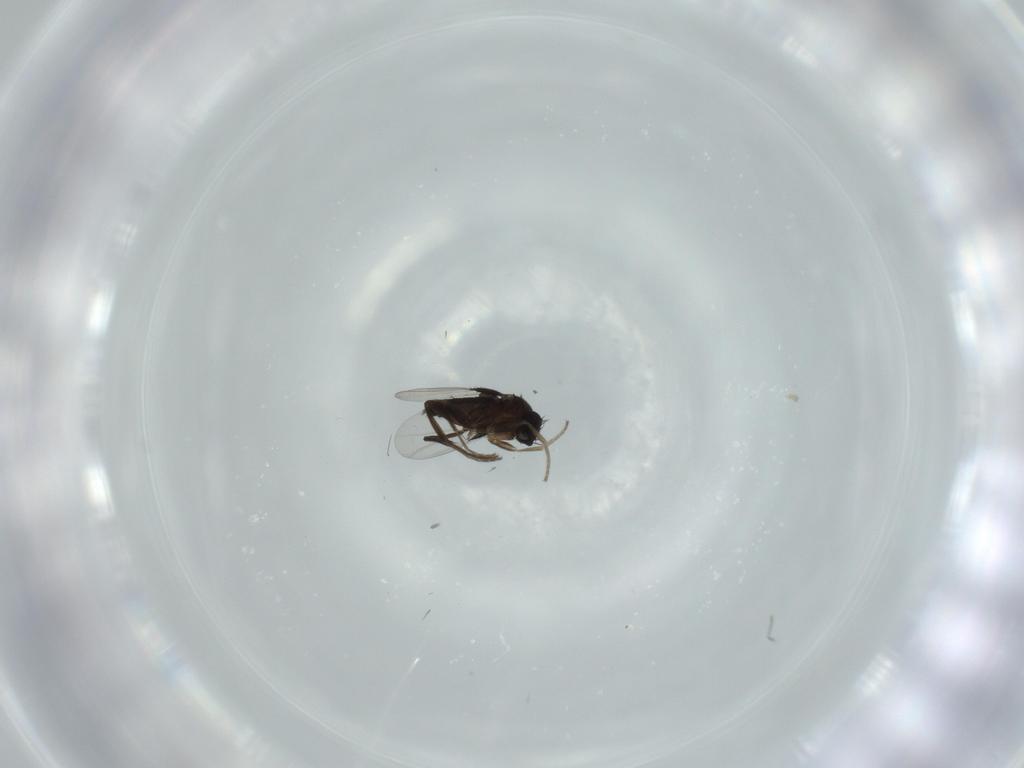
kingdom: Animalia
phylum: Arthropoda
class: Insecta
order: Diptera
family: Phoridae
